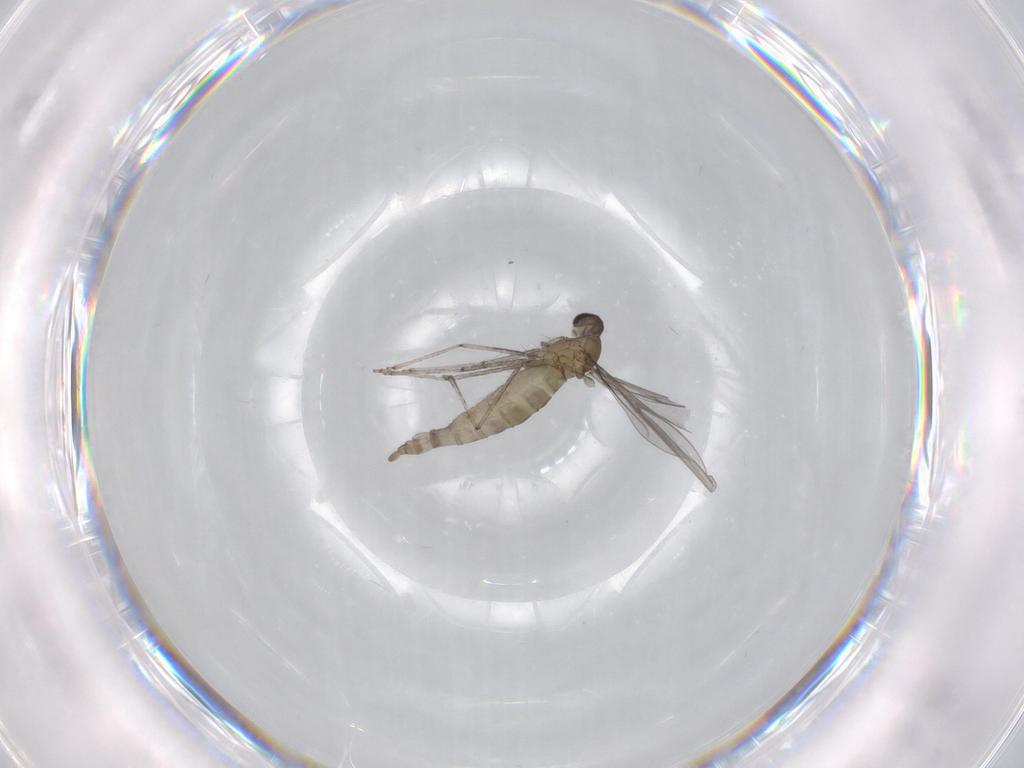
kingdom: Animalia
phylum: Arthropoda
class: Insecta
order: Diptera
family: Cecidomyiidae
